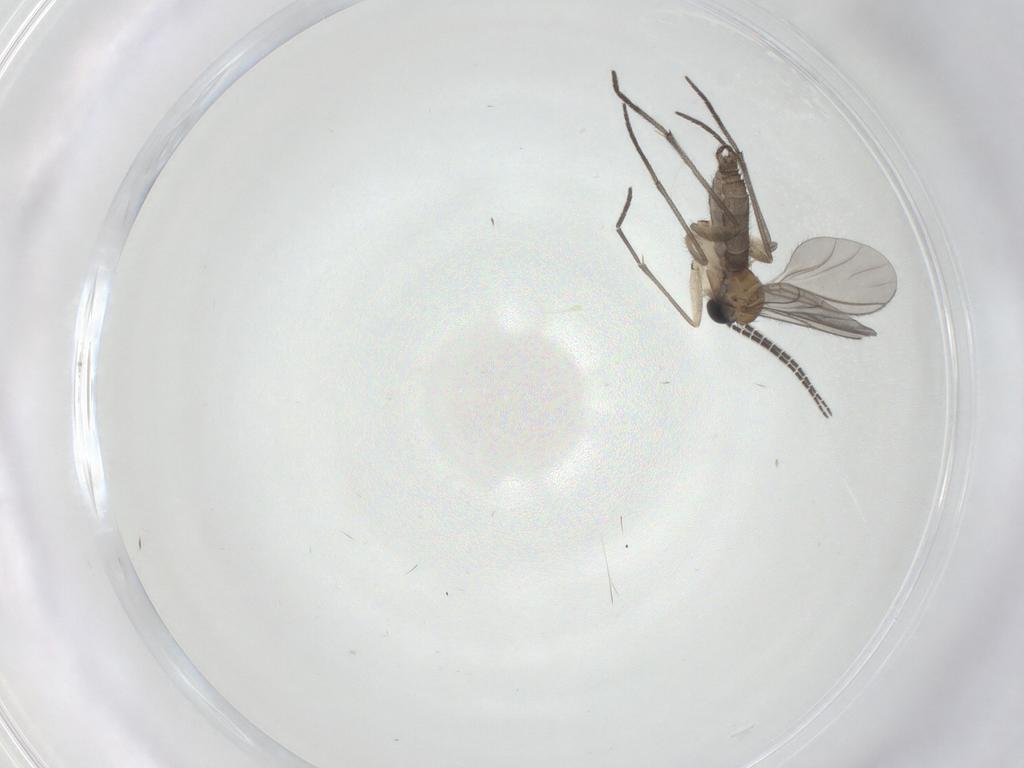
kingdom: Animalia
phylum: Arthropoda
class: Insecta
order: Diptera
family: Sciaridae
